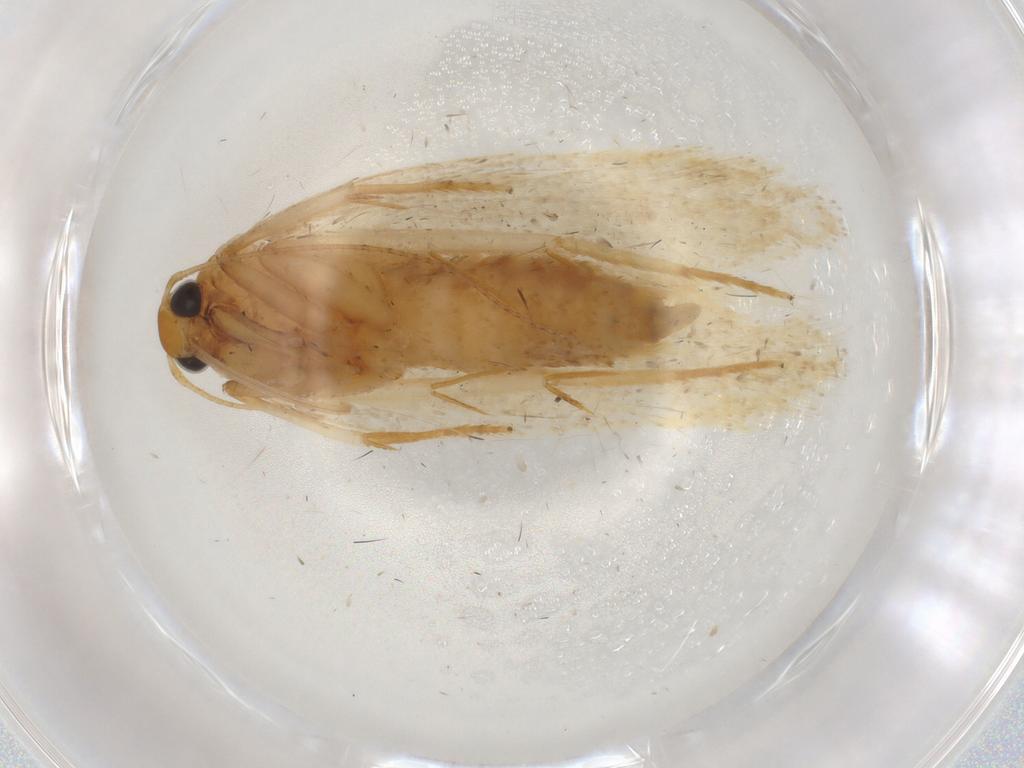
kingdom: Animalia
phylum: Arthropoda
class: Insecta
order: Lepidoptera
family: Gelechiidae
